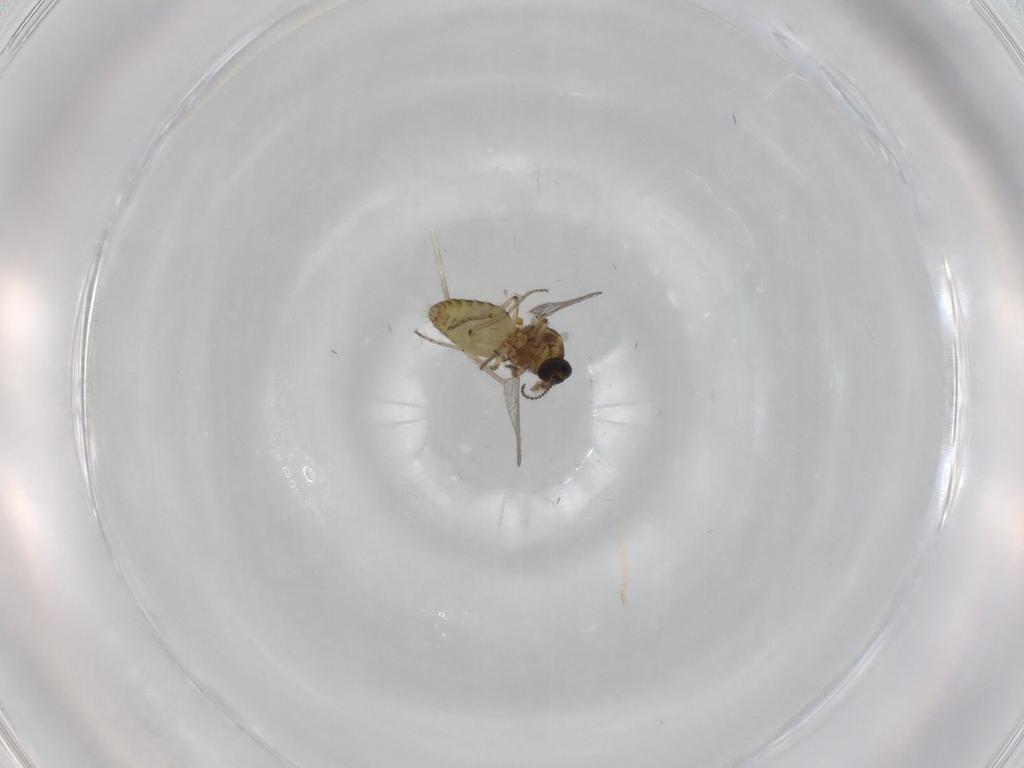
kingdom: Animalia
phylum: Arthropoda
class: Insecta
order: Diptera
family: Ceratopogonidae
